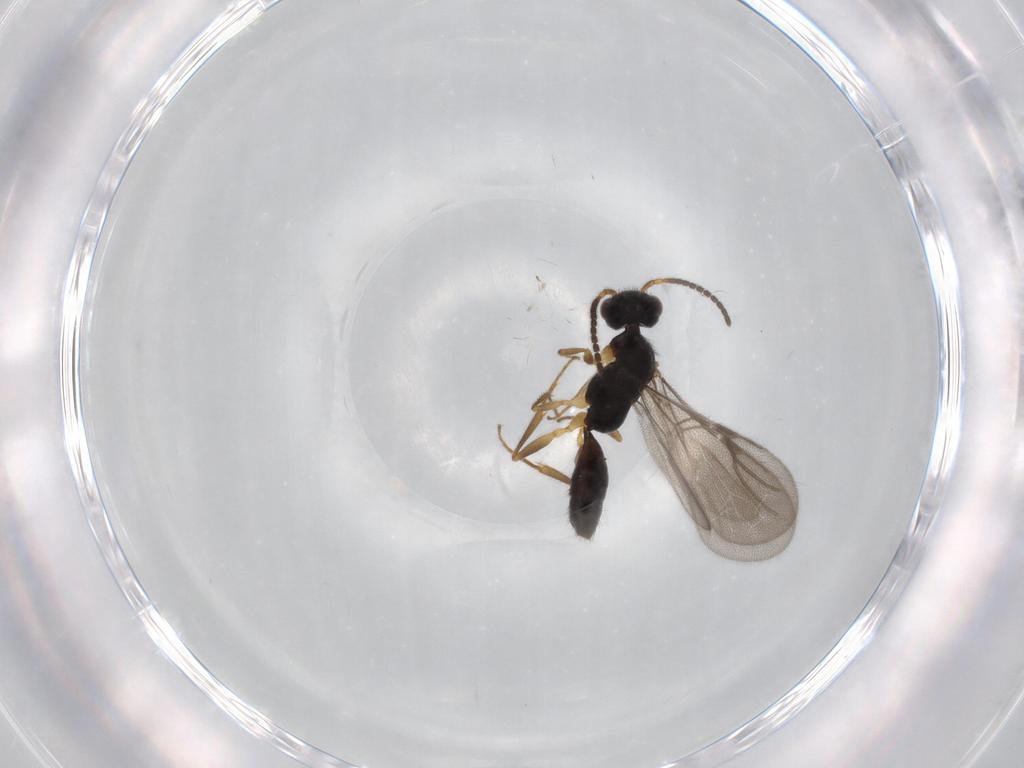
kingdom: Animalia
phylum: Arthropoda
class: Insecta
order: Hymenoptera
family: Bethylidae
